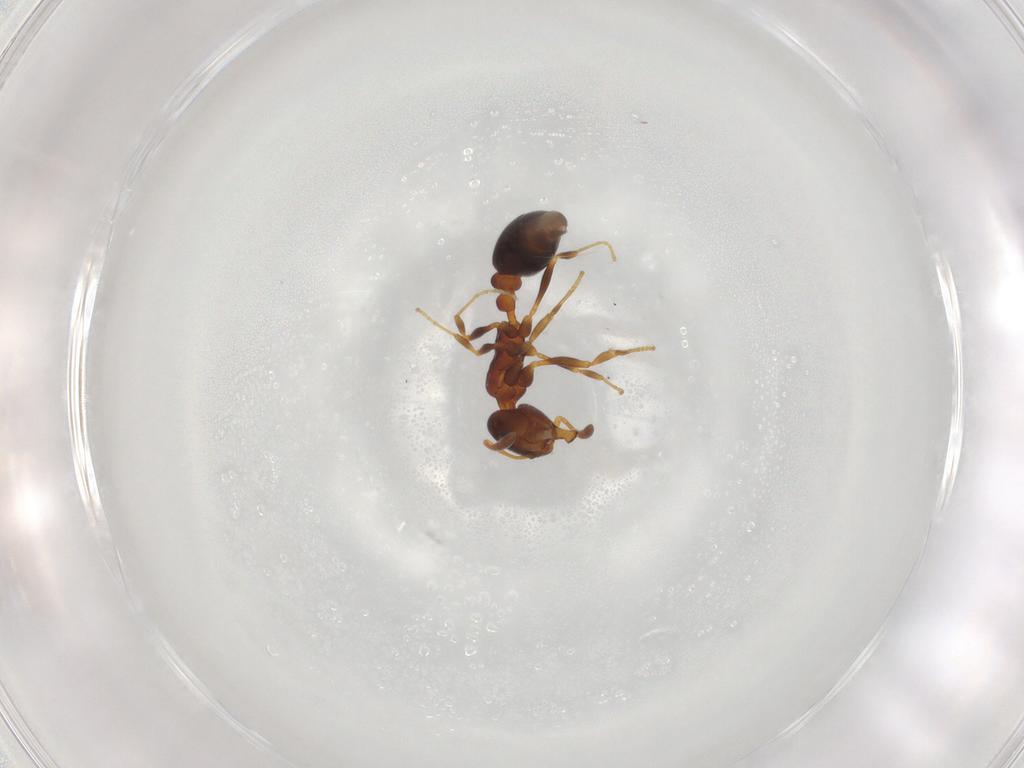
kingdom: Animalia
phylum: Arthropoda
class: Insecta
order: Hymenoptera
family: Formicidae
